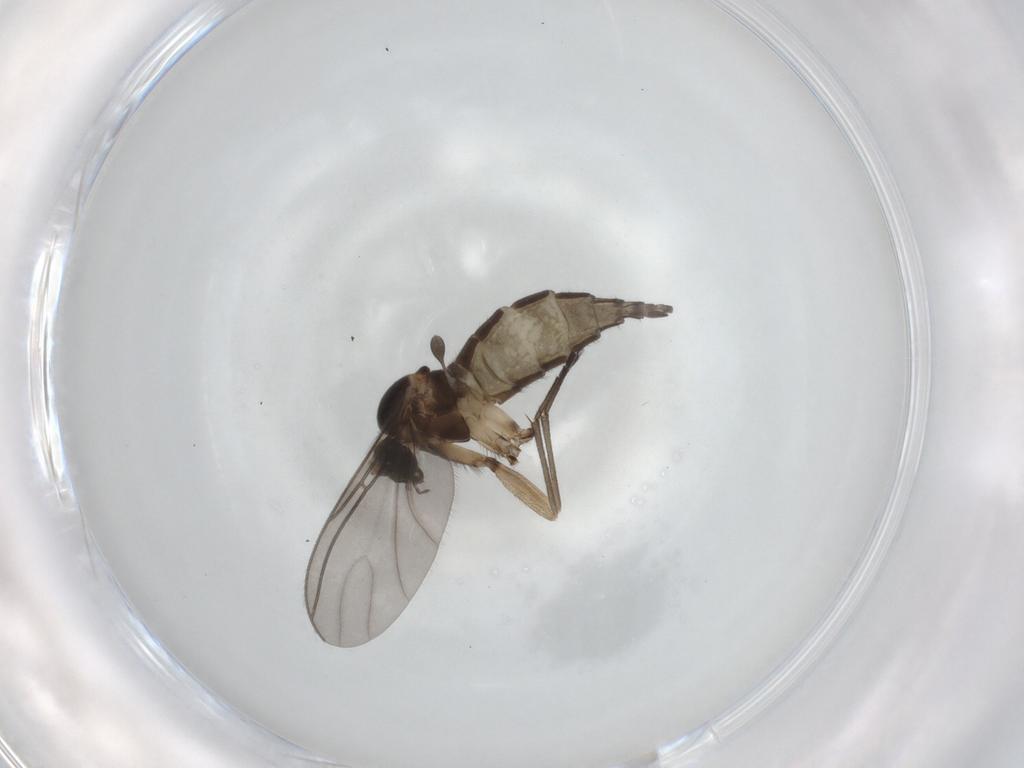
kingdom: Animalia
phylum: Arthropoda
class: Insecta
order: Diptera
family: Sciaridae
